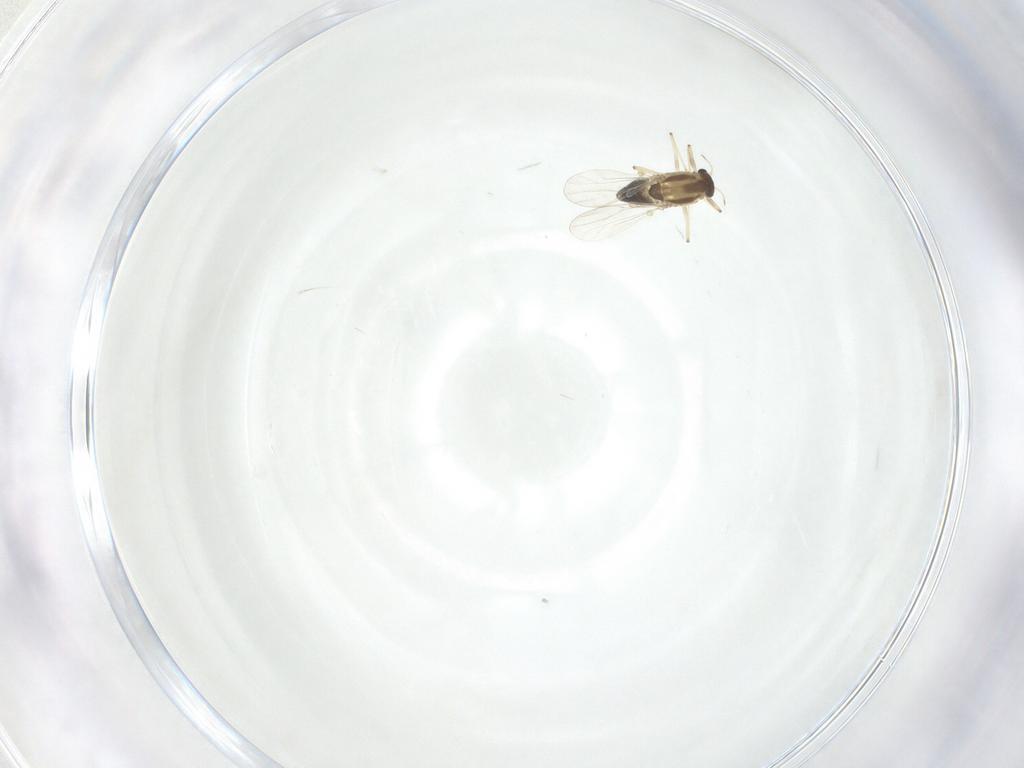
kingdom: Animalia
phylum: Arthropoda
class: Insecta
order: Diptera
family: Chironomidae
